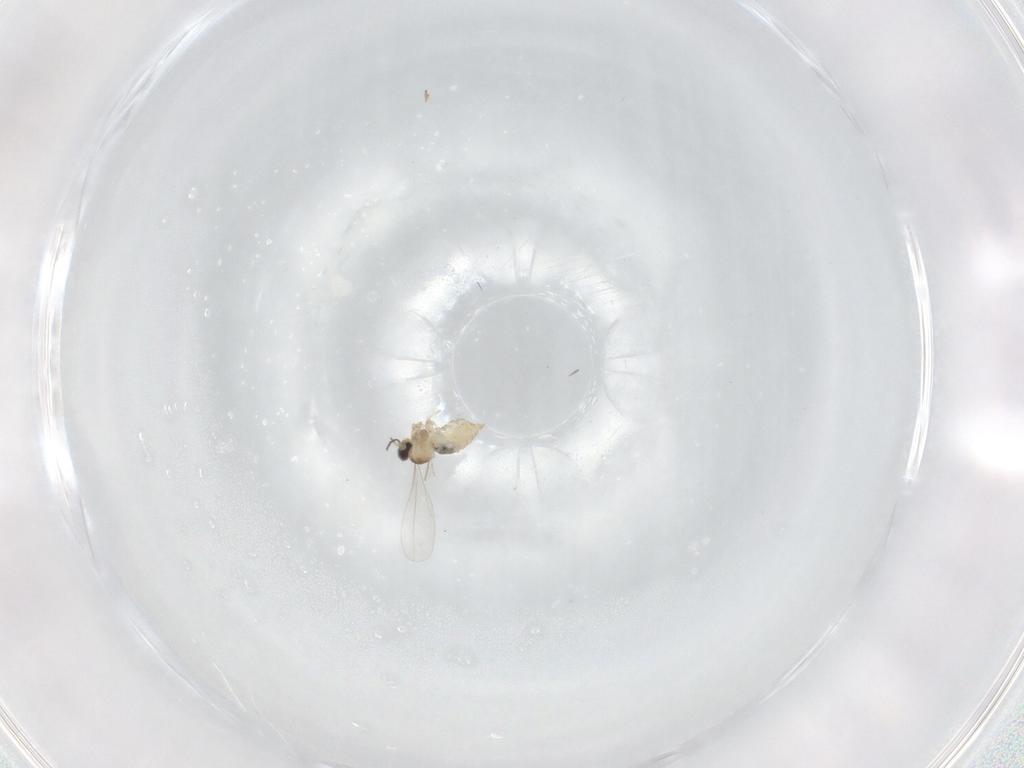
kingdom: Animalia
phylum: Arthropoda
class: Insecta
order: Diptera
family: Cecidomyiidae
